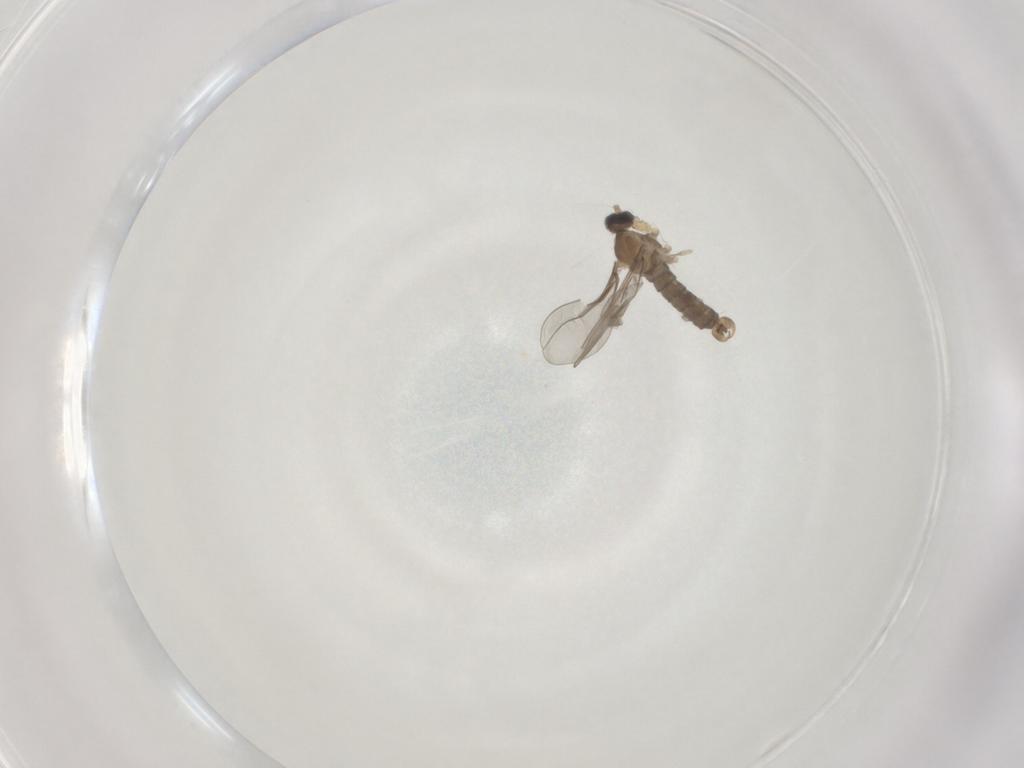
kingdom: Animalia
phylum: Arthropoda
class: Insecta
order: Diptera
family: Cecidomyiidae
